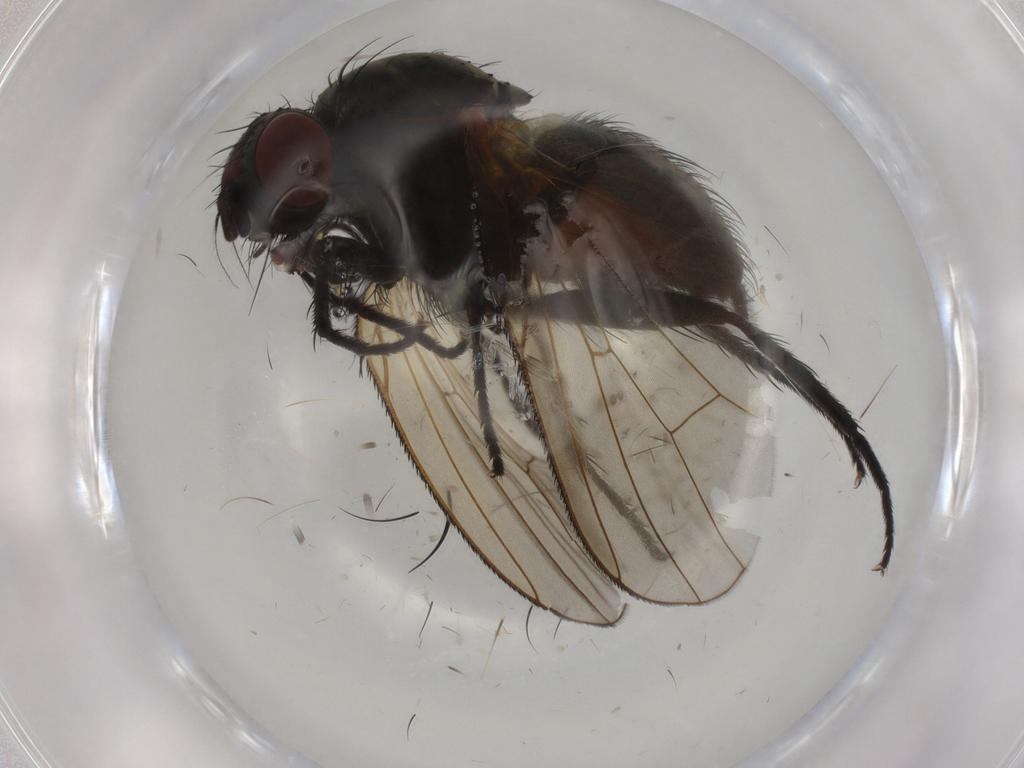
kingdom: Animalia
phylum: Arthropoda
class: Insecta
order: Diptera
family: Anthomyiidae
